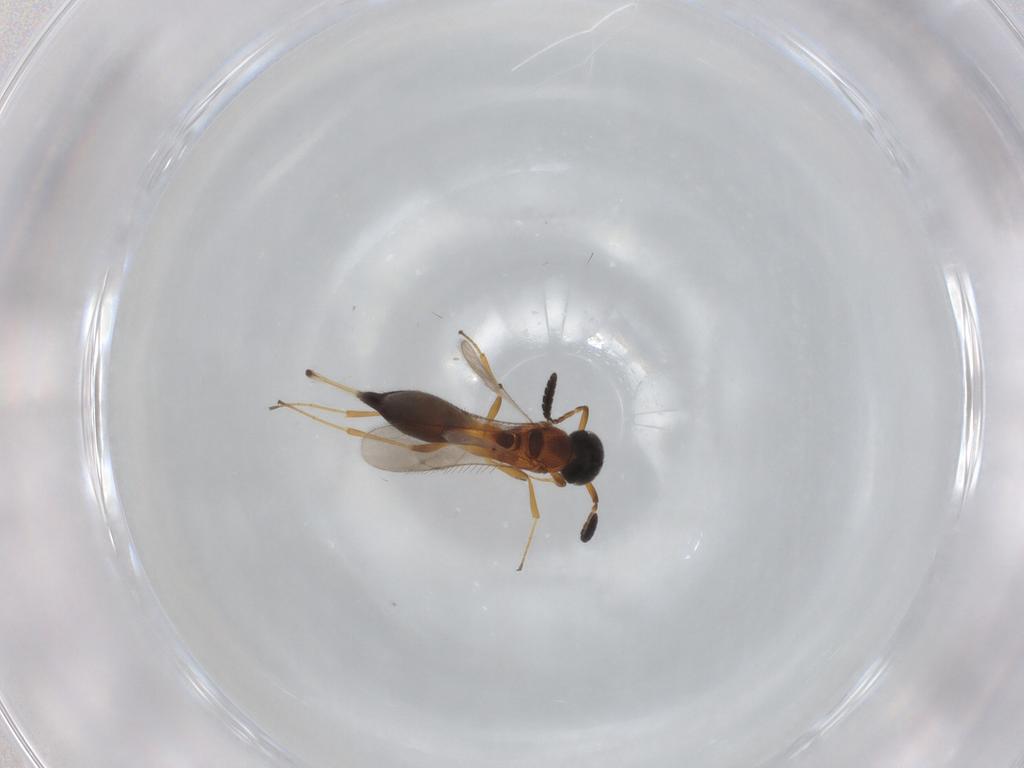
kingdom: Animalia
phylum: Arthropoda
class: Insecta
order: Hymenoptera
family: Scelionidae
